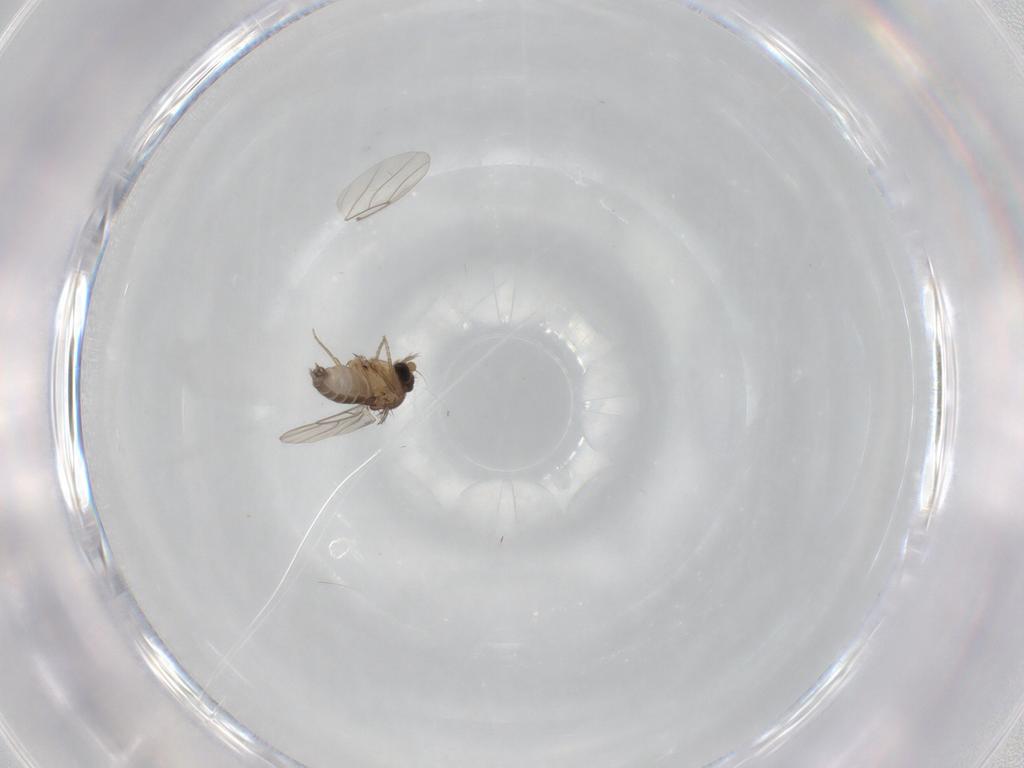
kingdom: Animalia
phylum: Arthropoda
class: Insecta
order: Diptera
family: Phoridae
